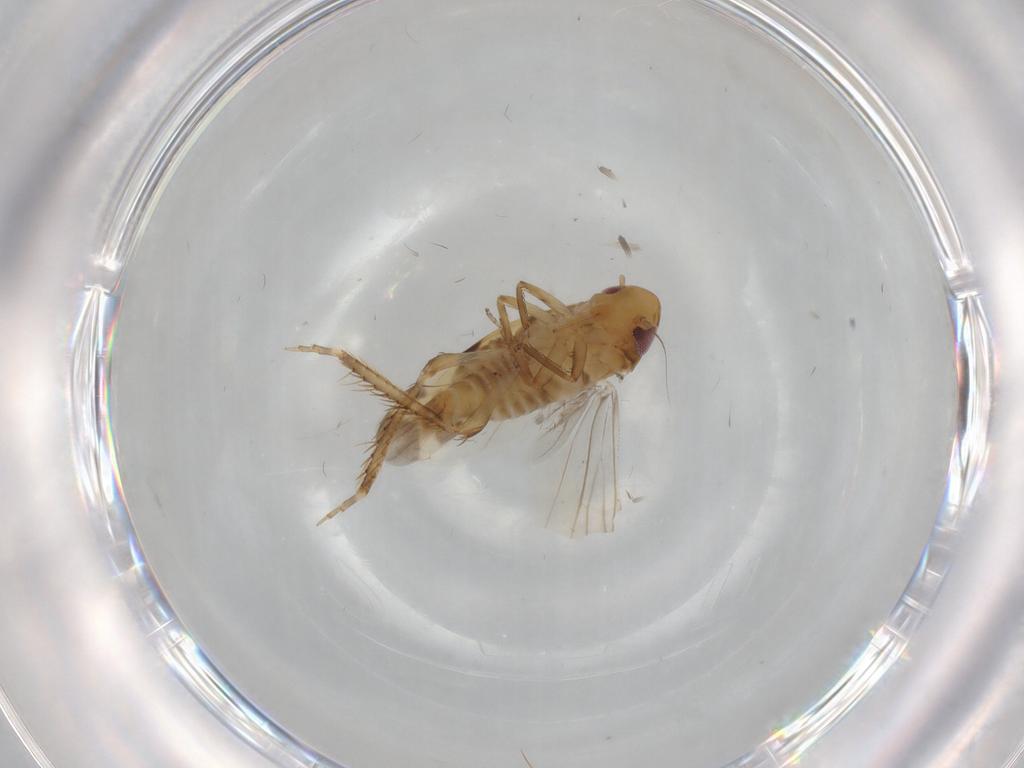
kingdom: Animalia
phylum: Arthropoda
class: Insecta
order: Hemiptera
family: Cicadellidae
